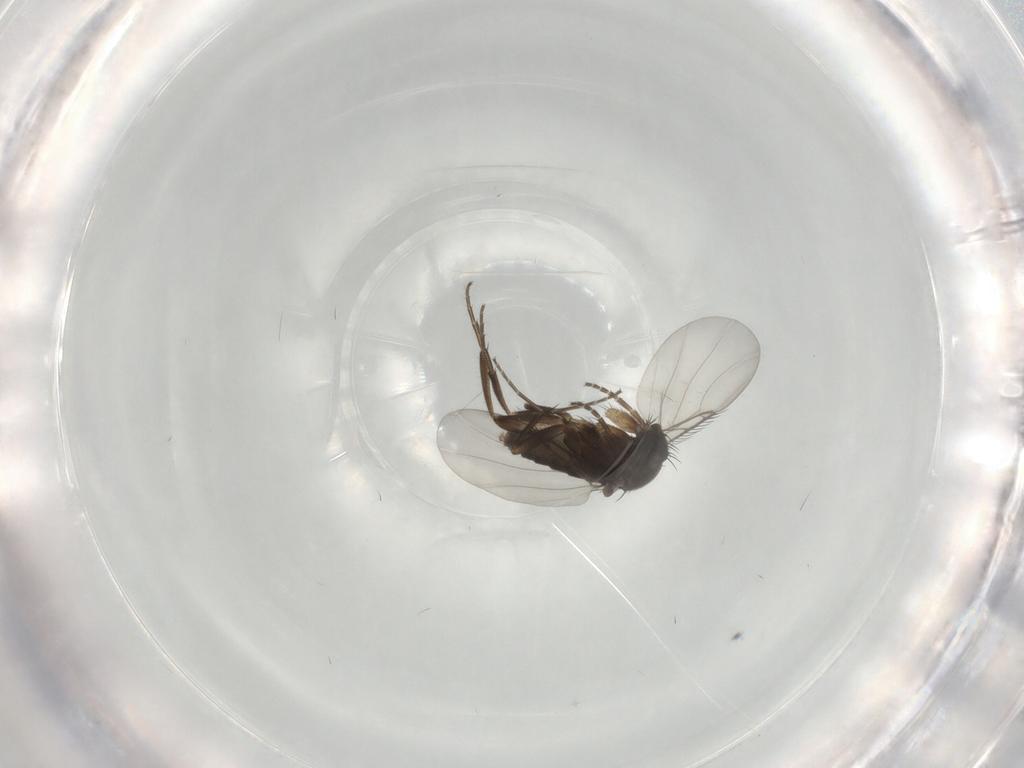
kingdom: Animalia
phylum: Arthropoda
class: Insecta
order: Diptera
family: Phoridae
